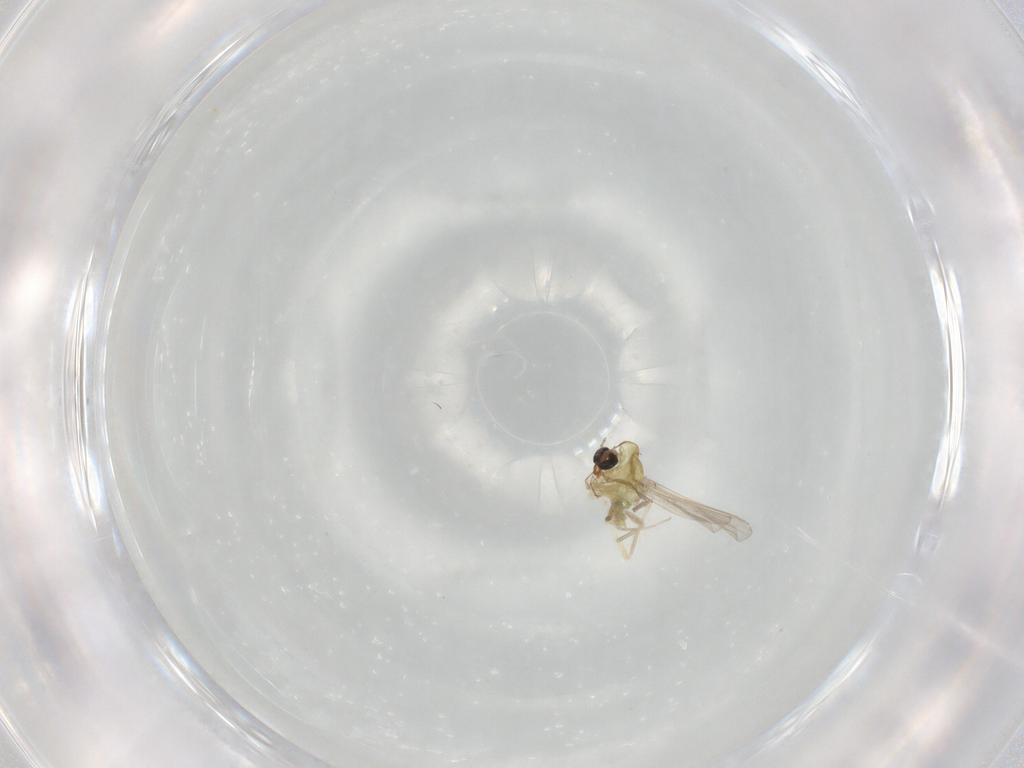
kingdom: Animalia
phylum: Arthropoda
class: Insecta
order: Diptera
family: Chironomidae
